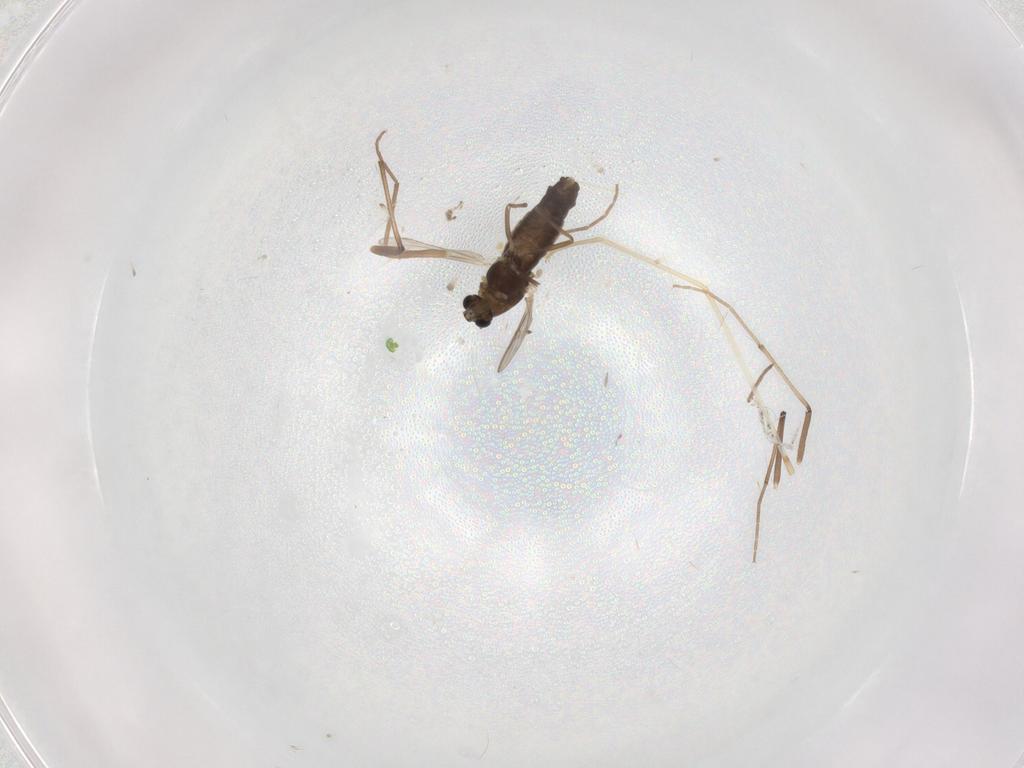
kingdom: Animalia
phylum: Arthropoda
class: Insecta
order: Diptera
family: Chironomidae
